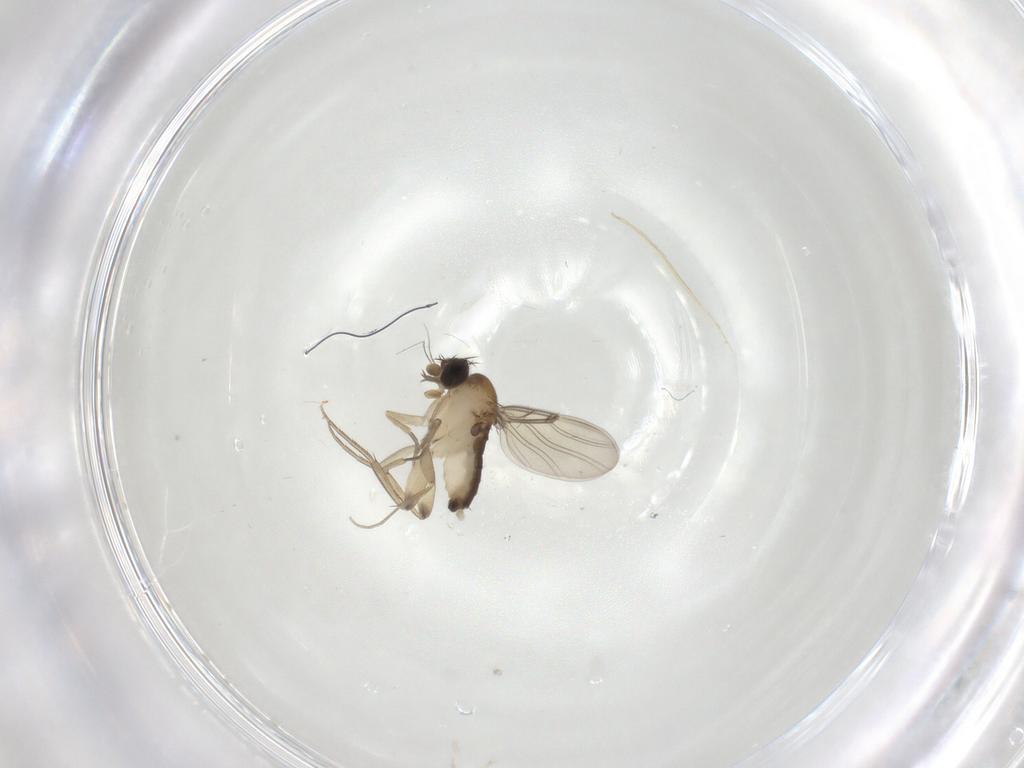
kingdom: Animalia
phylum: Arthropoda
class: Insecta
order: Diptera
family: Phoridae
